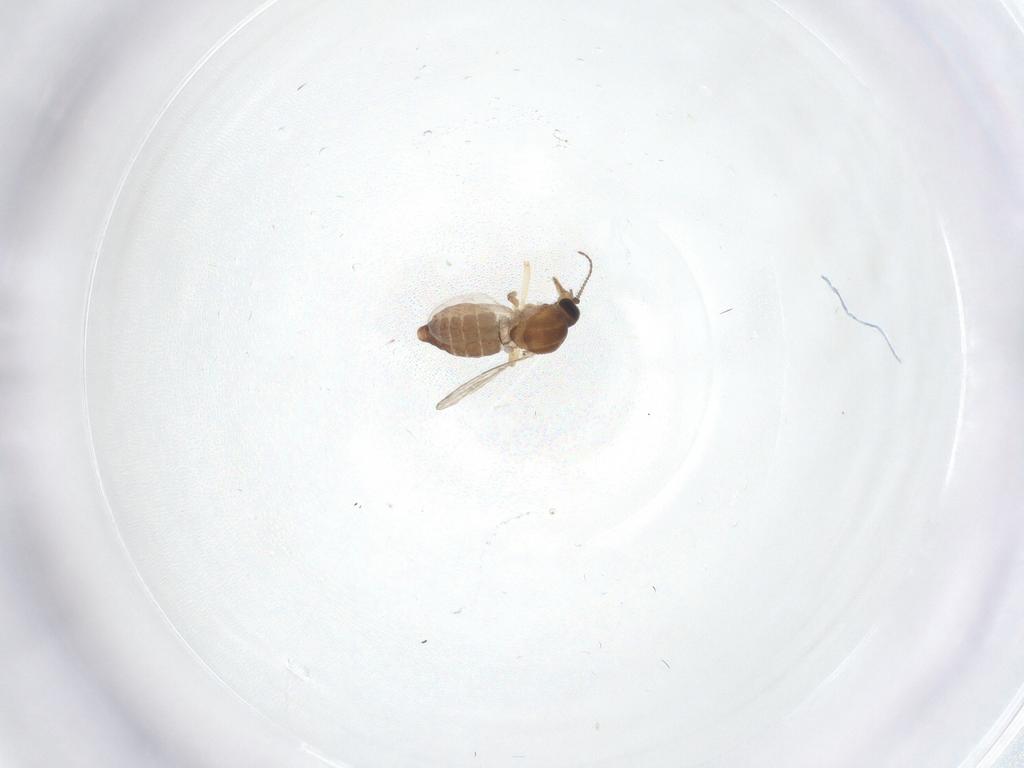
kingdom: Animalia
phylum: Arthropoda
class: Insecta
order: Diptera
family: Ceratopogonidae
